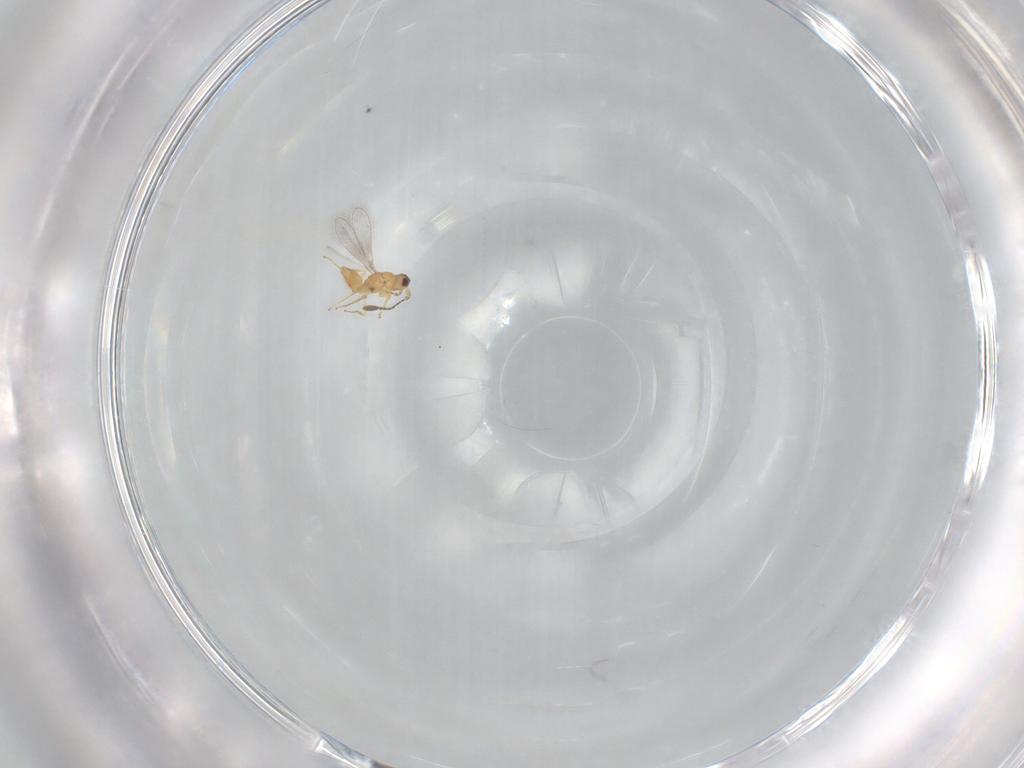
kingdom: Animalia
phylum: Arthropoda
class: Insecta
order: Hymenoptera
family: Mymaridae
